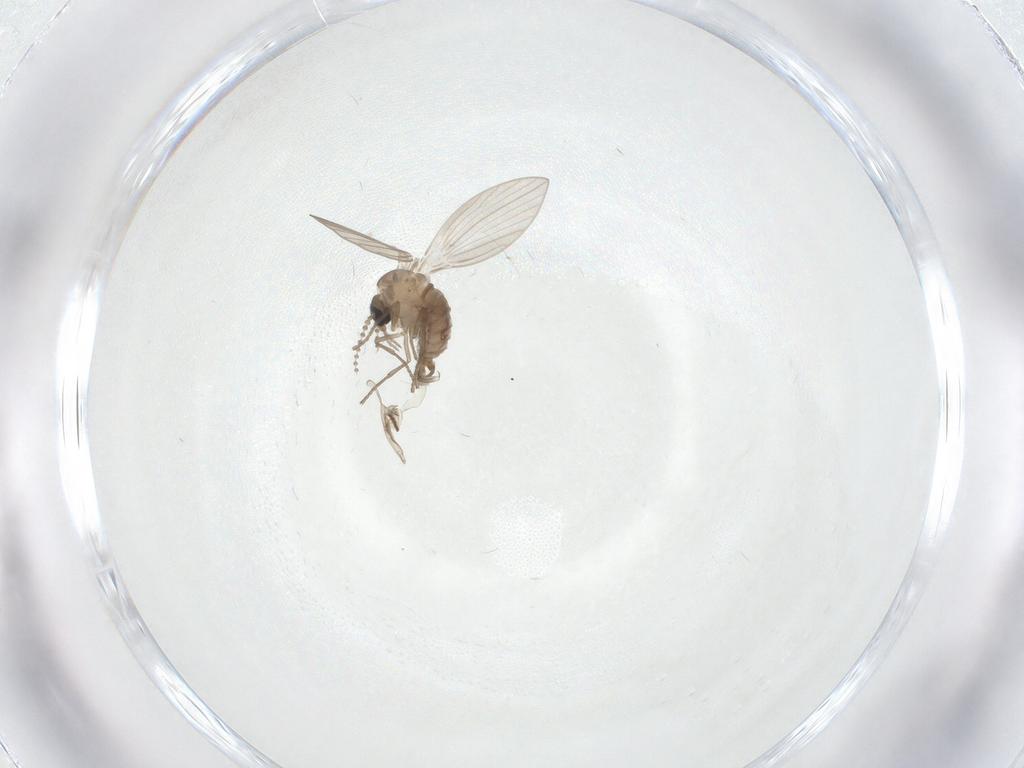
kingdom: Animalia
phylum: Arthropoda
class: Insecta
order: Diptera
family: Psychodidae
